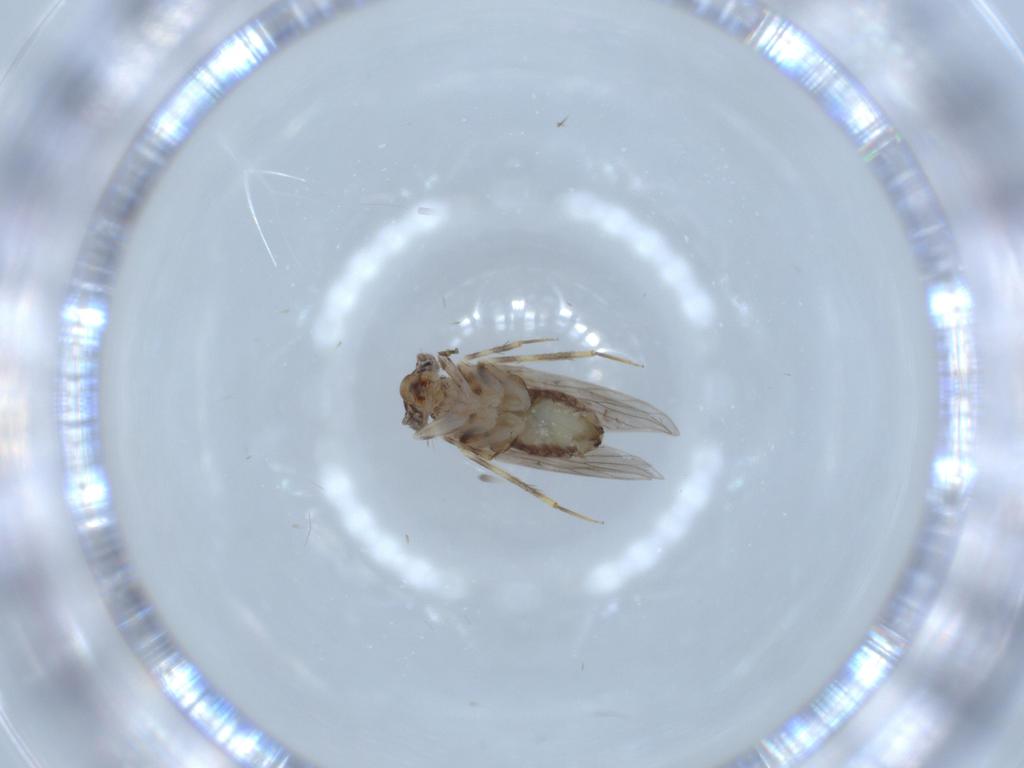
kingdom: Animalia
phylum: Arthropoda
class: Insecta
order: Psocodea
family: Lepidopsocidae
